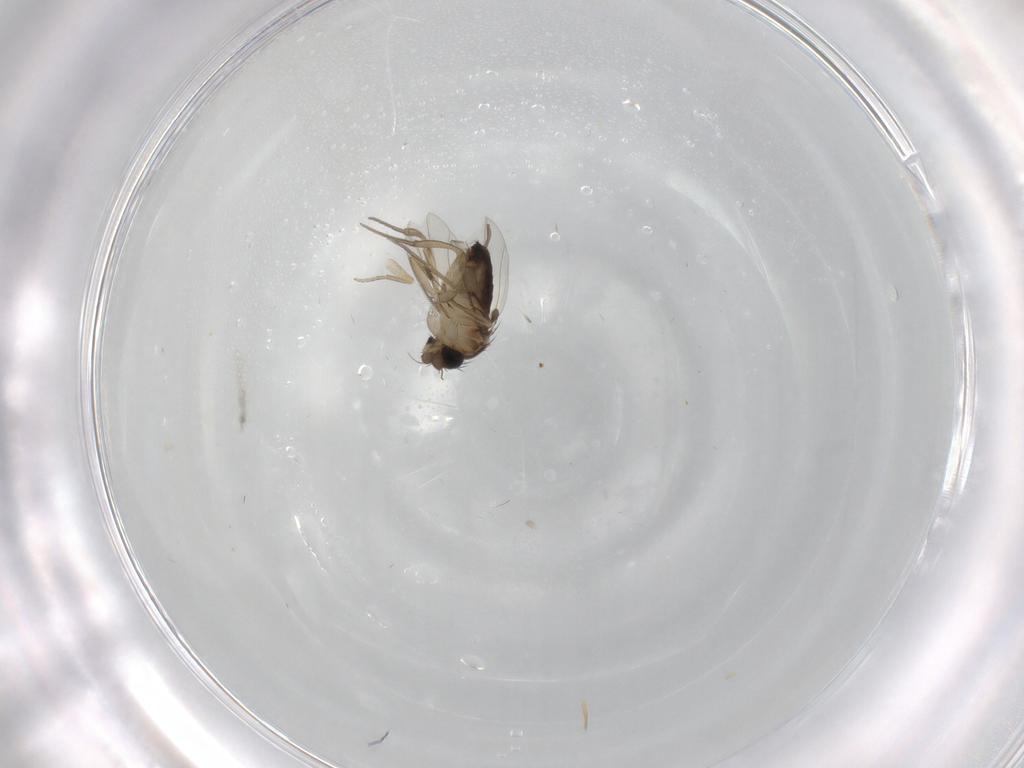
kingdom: Animalia
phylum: Arthropoda
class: Insecta
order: Diptera
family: Phoridae
